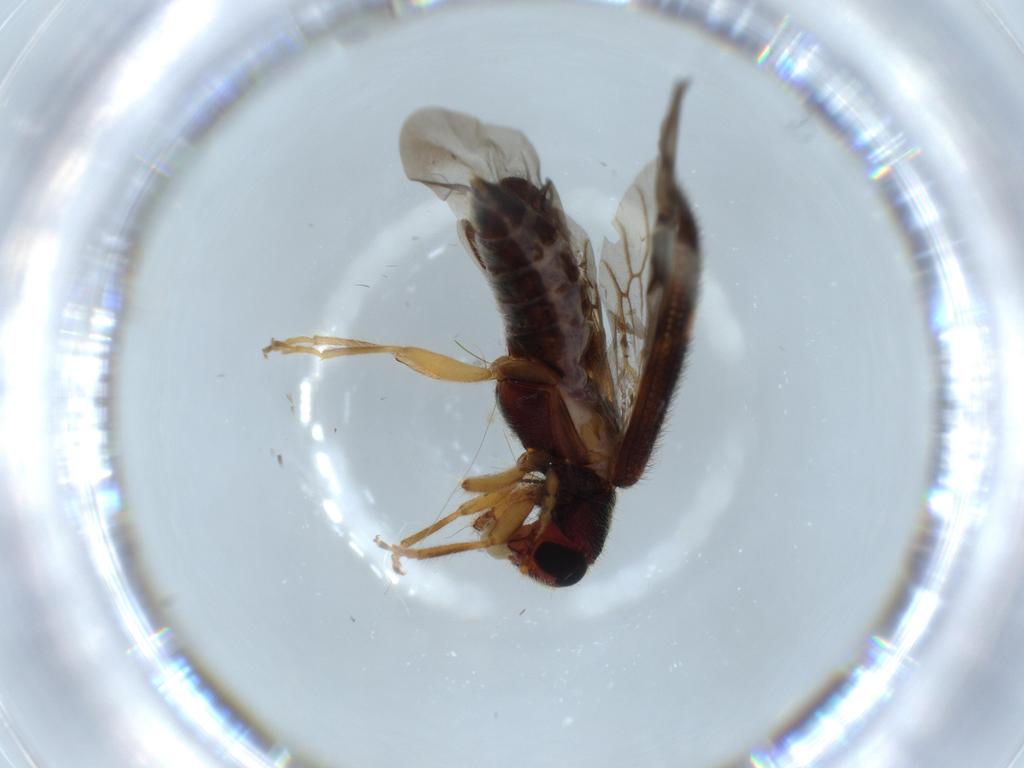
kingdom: Animalia
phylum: Arthropoda
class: Insecta
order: Coleoptera
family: Cleridae
